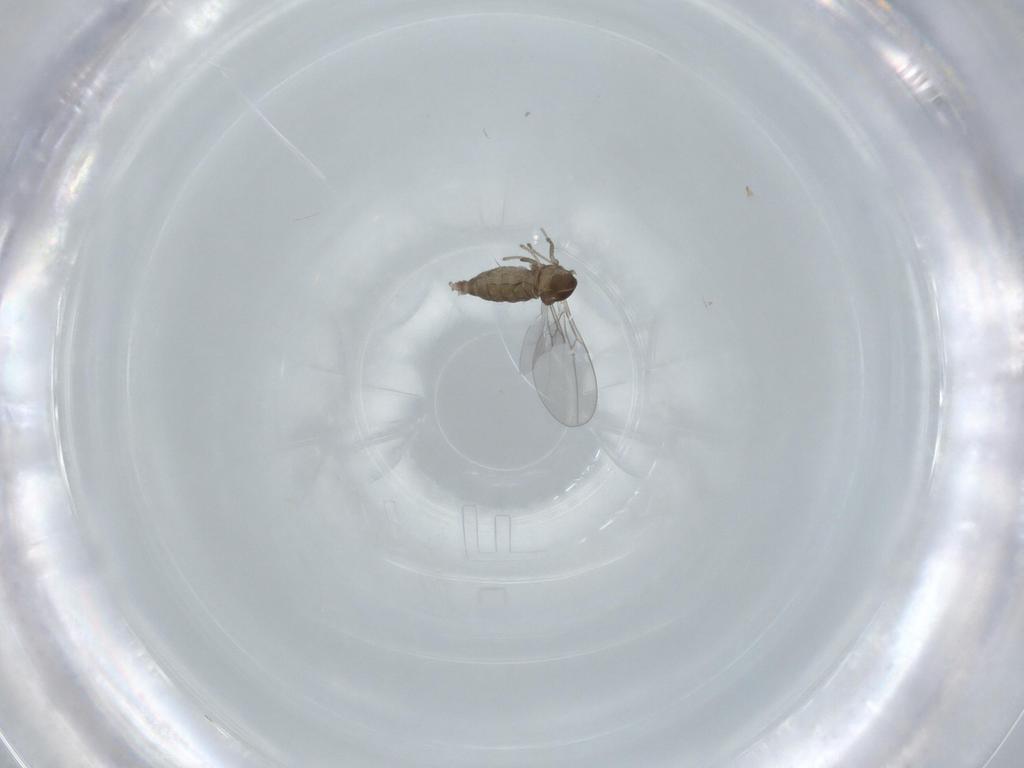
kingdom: Animalia
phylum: Arthropoda
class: Insecta
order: Diptera
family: Cecidomyiidae
